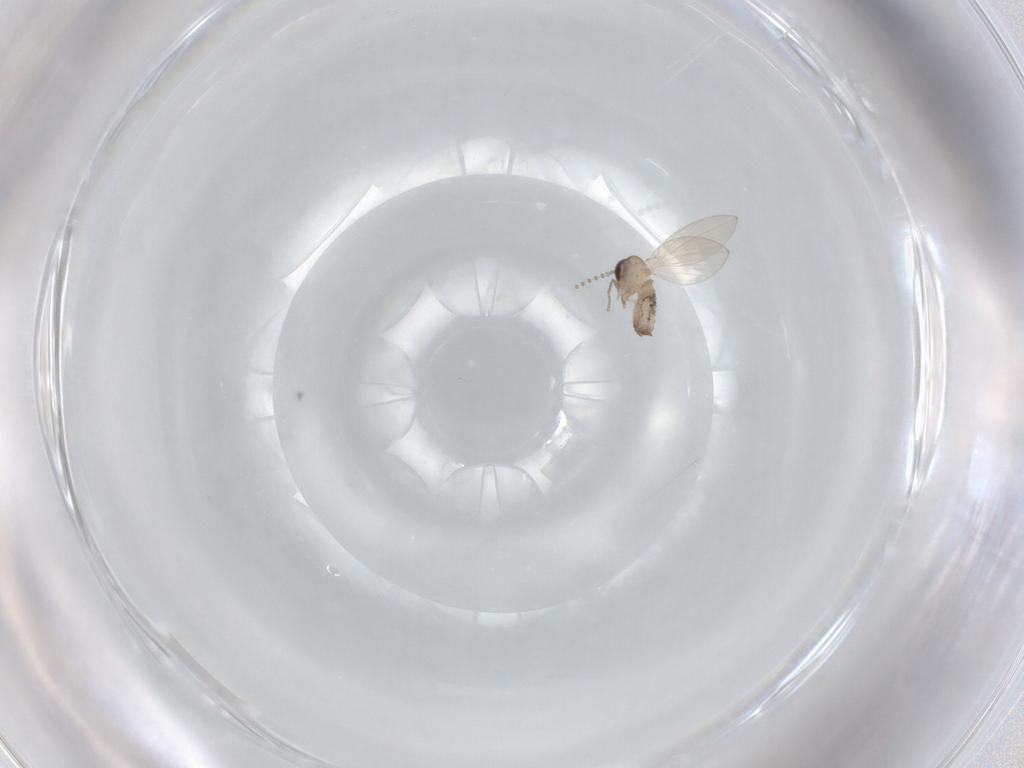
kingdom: Animalia
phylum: Arthropoda
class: Insecta
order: Diptera
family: Psychodidae
